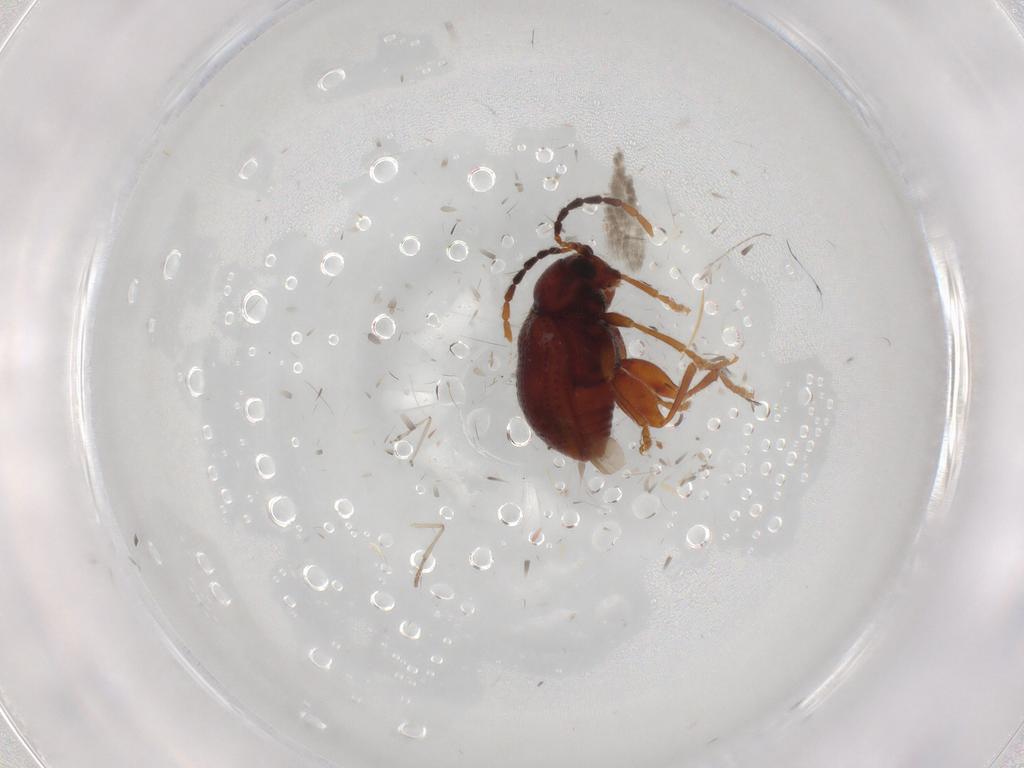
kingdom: Animalia
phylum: Arthropoda
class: Insecta
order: Coleoptera
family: Chrysomelidae
